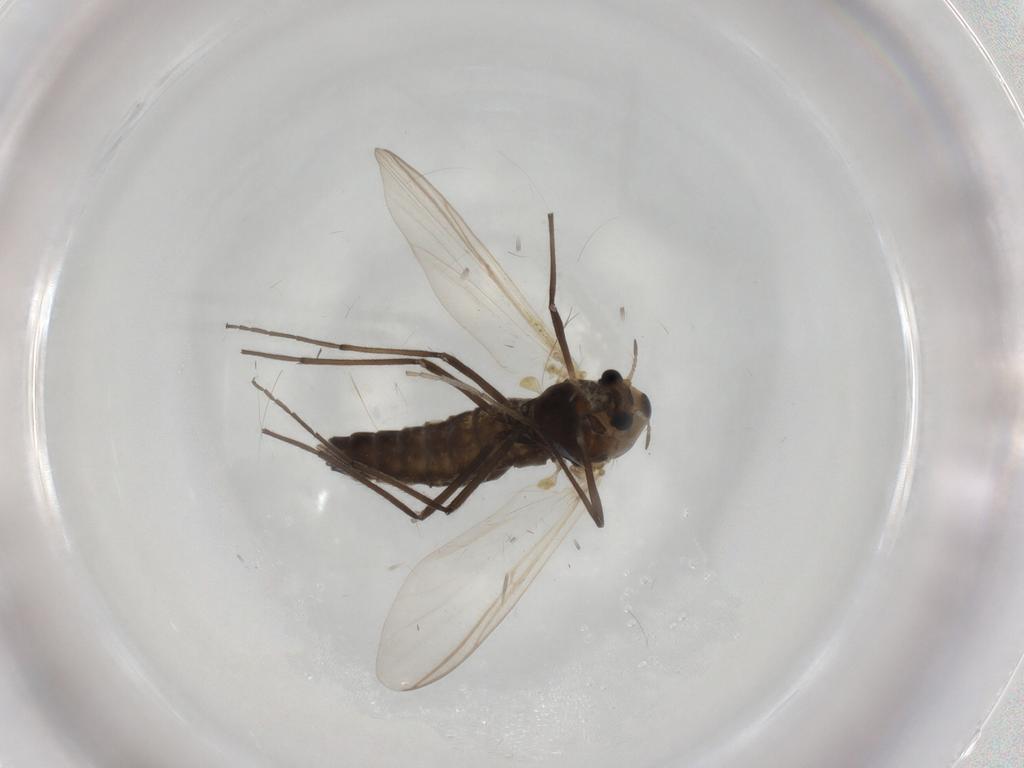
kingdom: Animalia
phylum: Arthropoda
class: Insecta
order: Diptera
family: Ceratopogonidae
